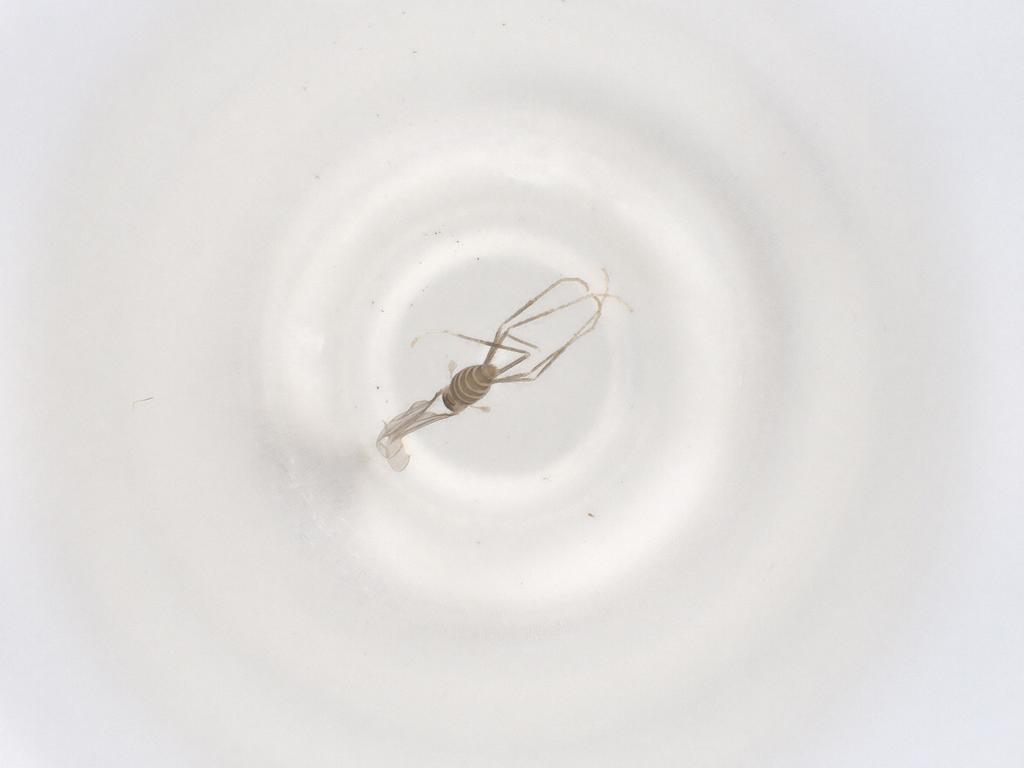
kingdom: Animalia
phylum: Arthropoda
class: Insecta
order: Diptera
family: Cecidomyiidae
